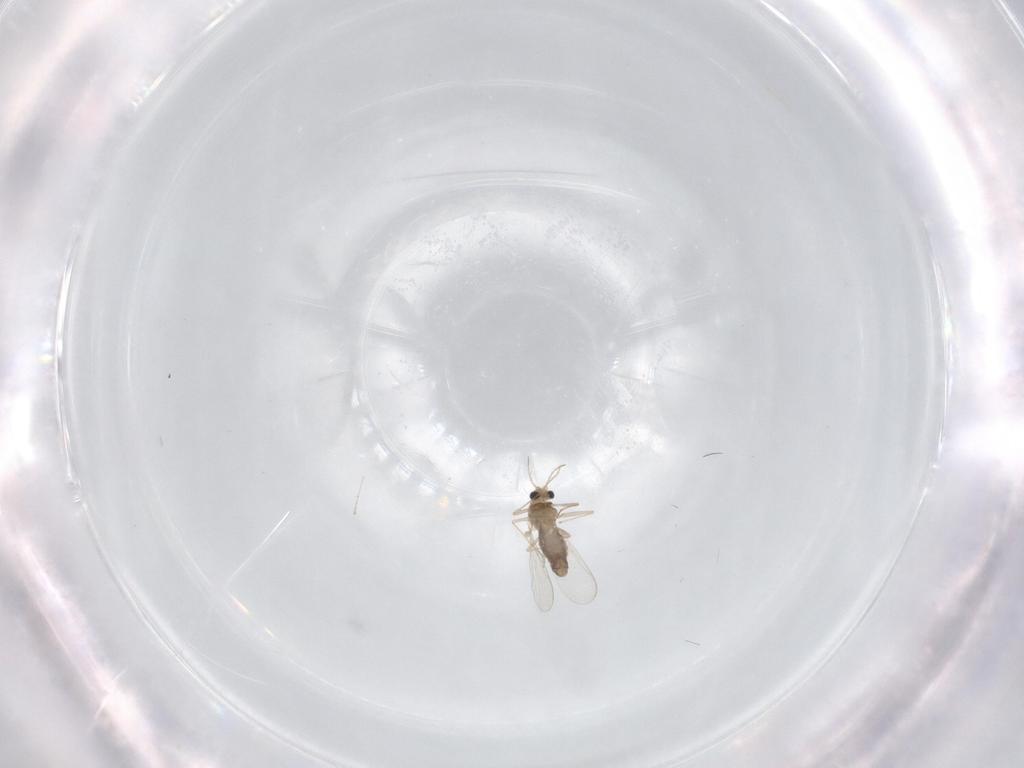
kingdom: Animalia
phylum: Arthropoda
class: Insecta
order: Diptera
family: Chironomidae
